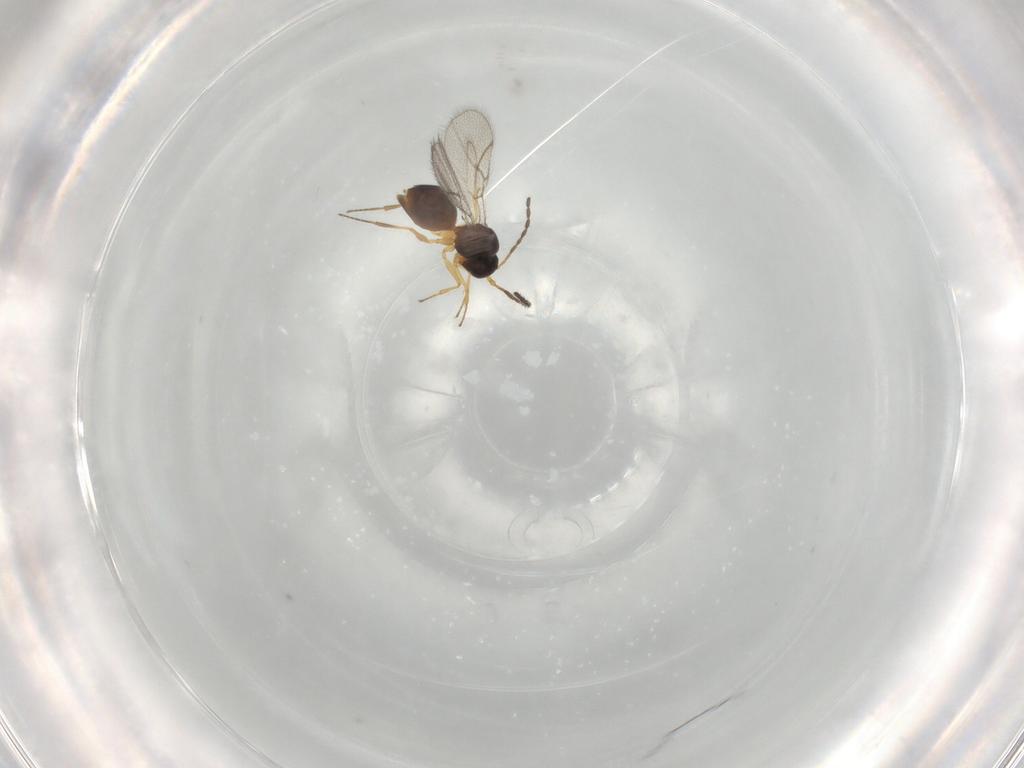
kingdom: Animalia
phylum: Arthropoda
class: Insecta
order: Hymenoptera
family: Figitidae
